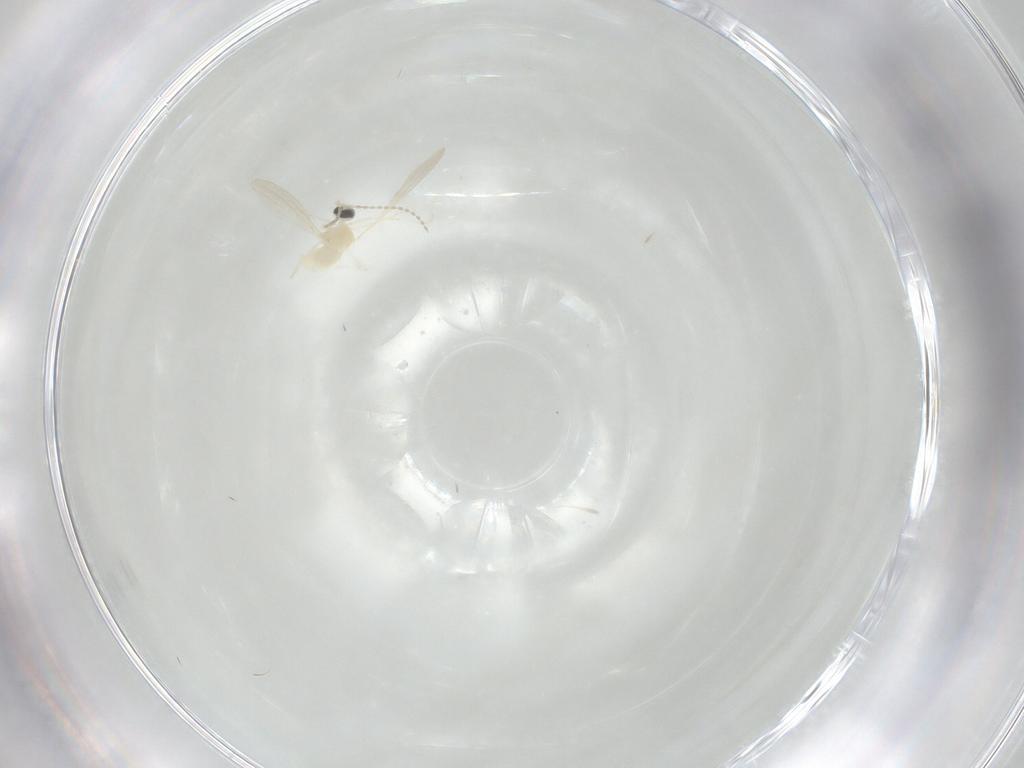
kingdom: Animalia
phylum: Arthropoda
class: Insecta
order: Diptera
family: Cecidomyiidae
